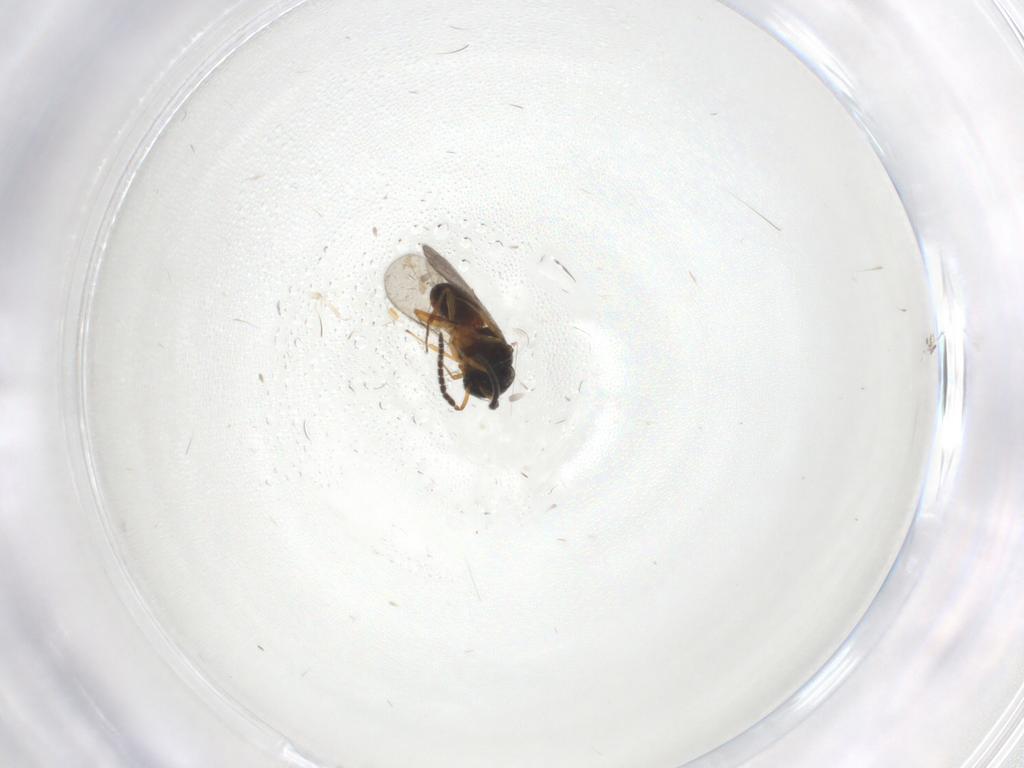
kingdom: Animalia
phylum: Arthropoda
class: Insecta
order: Hymenoptera
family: Scelionidae
